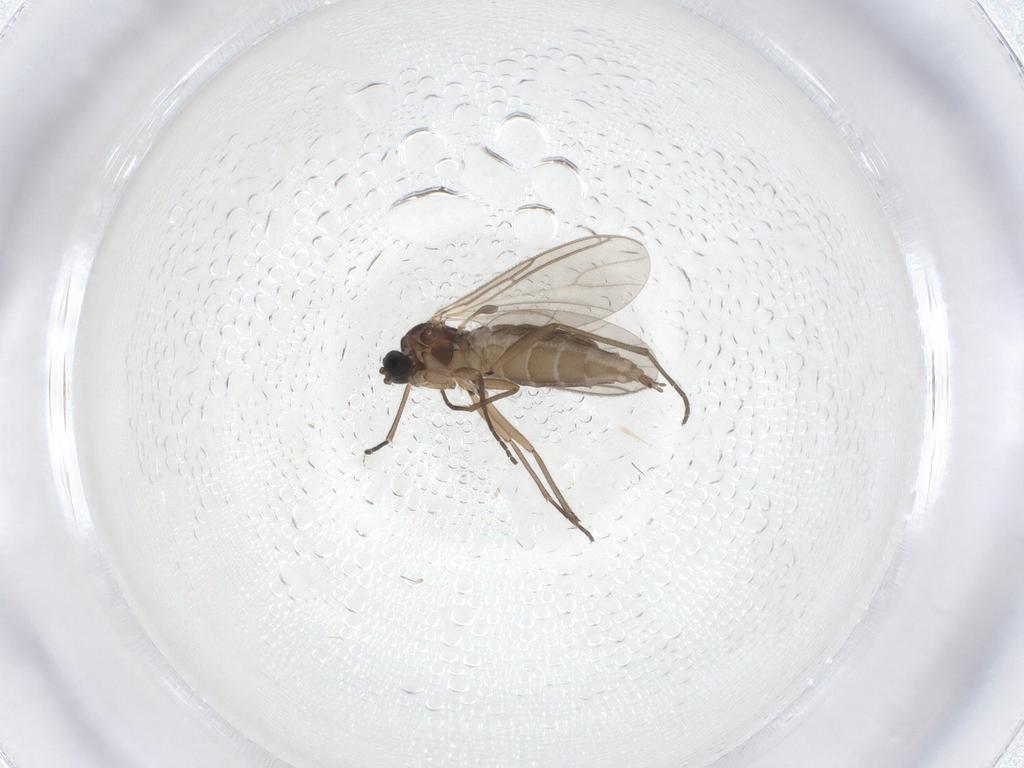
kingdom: Animalia
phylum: Arthropoda
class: Insecta
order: Diptera
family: Sciaridae
